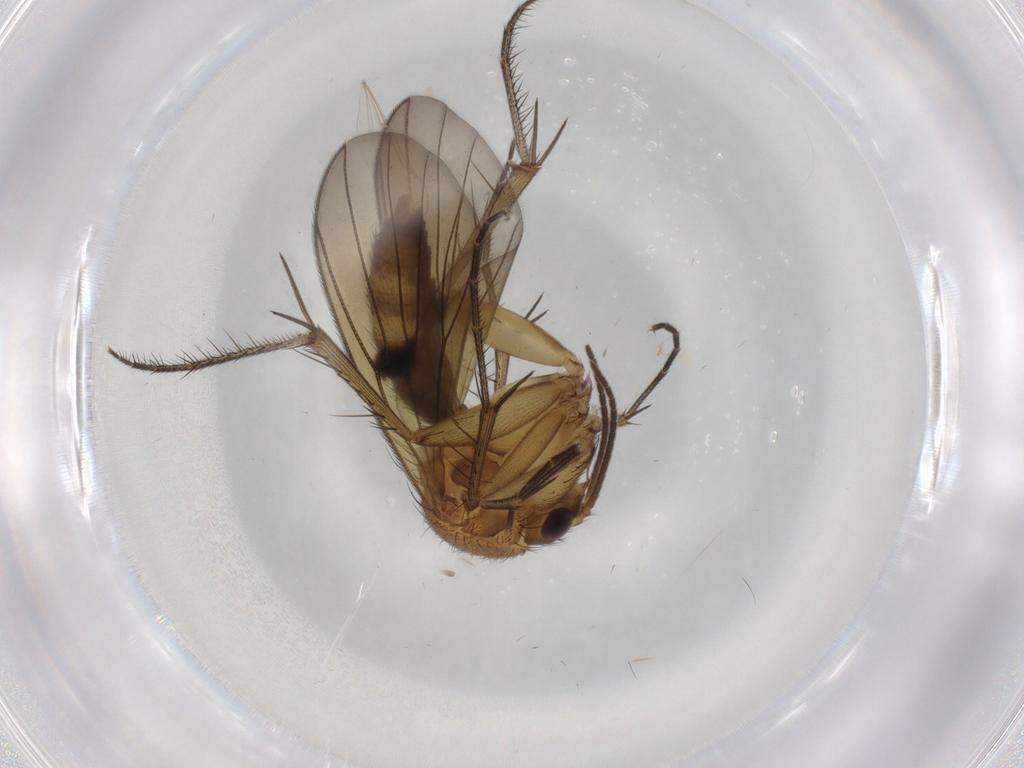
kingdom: Animalia
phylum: Arthropoda
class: Insecta
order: Diptera
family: Cecidomyiidae
